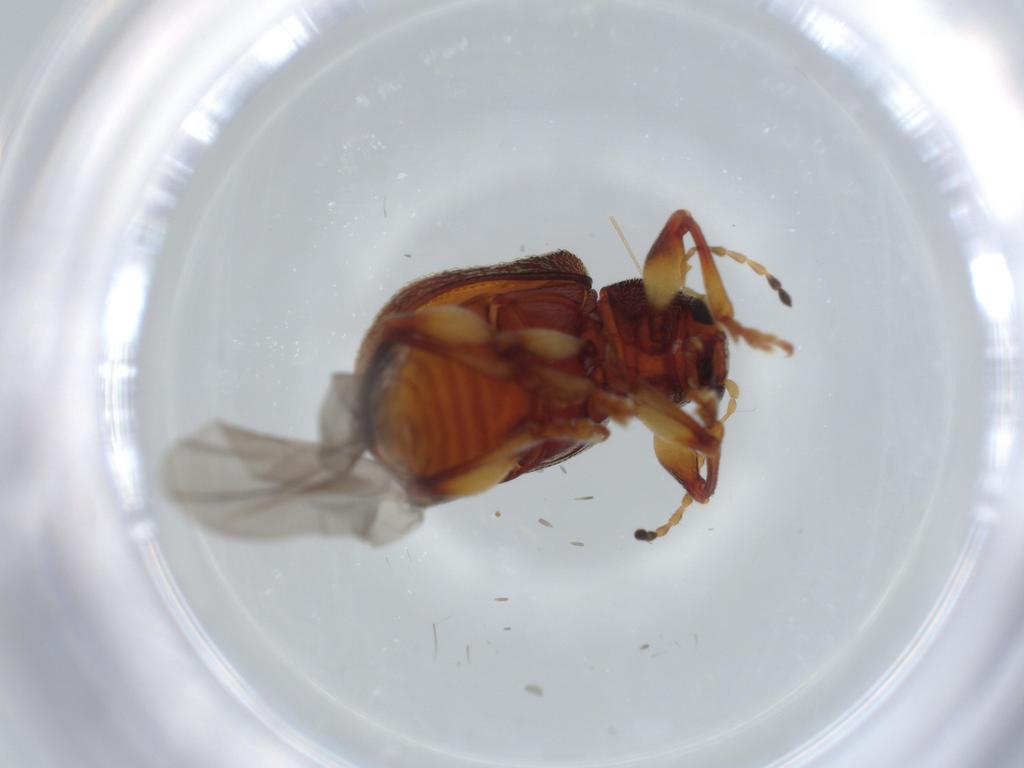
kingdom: Animalia
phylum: Arthropoda
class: Insecta
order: Coleoptera
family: Chrysomelidae
